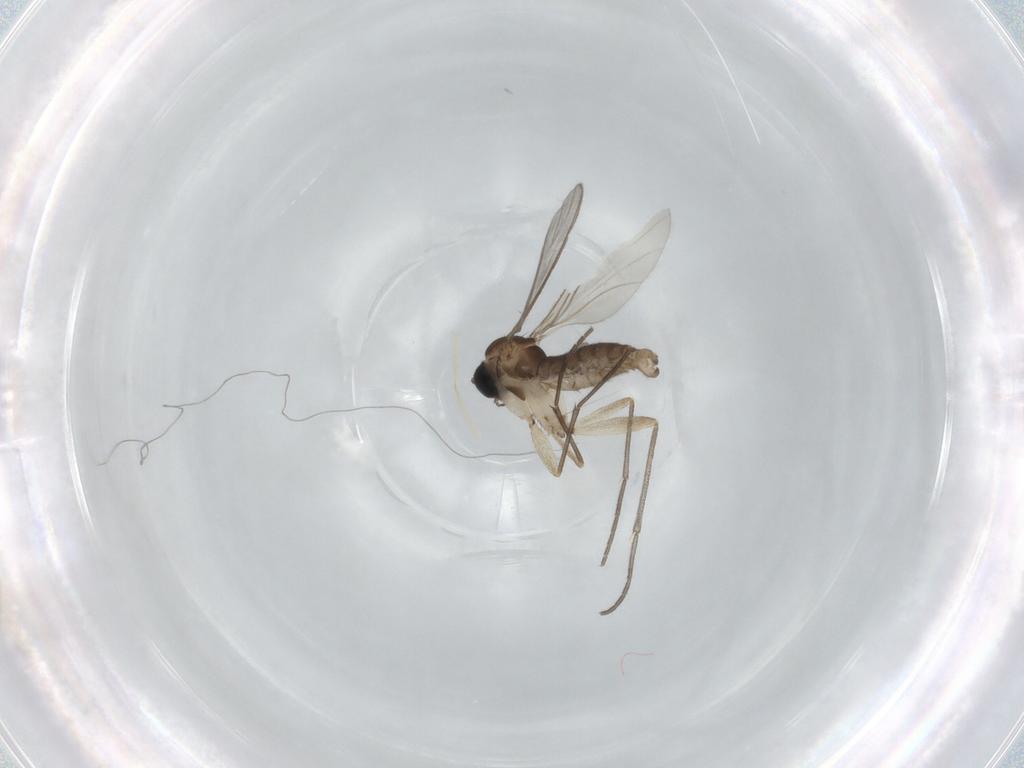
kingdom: Animalia
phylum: Arthropoda
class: Insecta
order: Diptera
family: Sciaridae
